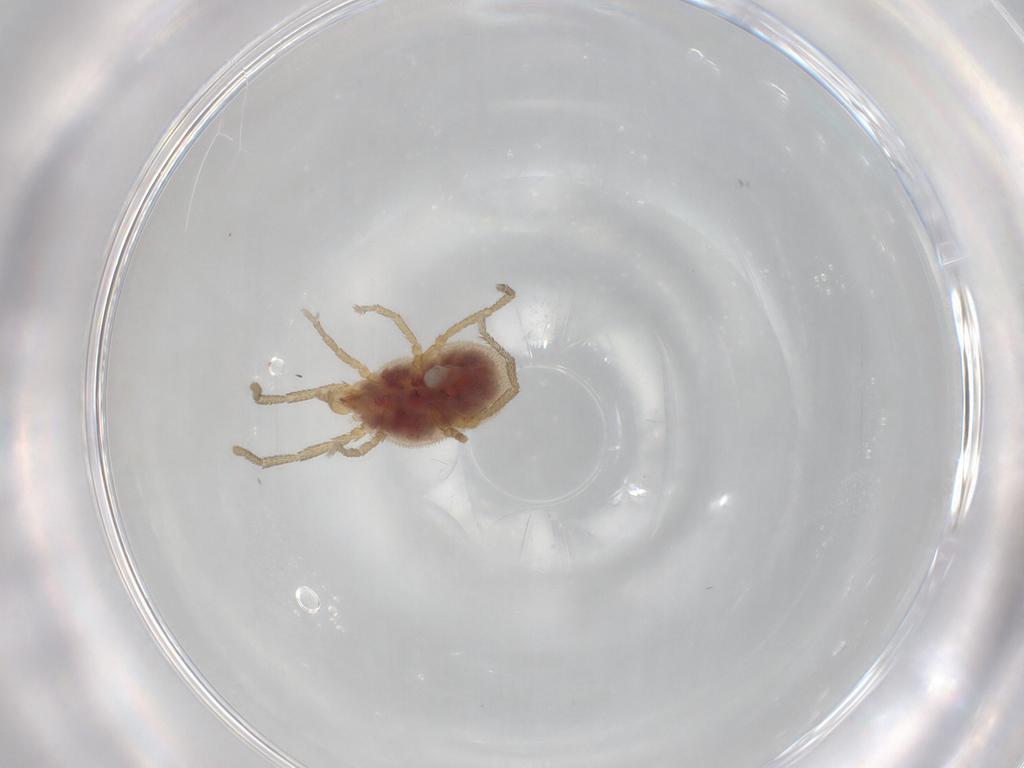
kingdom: Animalia
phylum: Arthropoda
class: Arachnida
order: Trombidiformes
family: Erythraeidae
